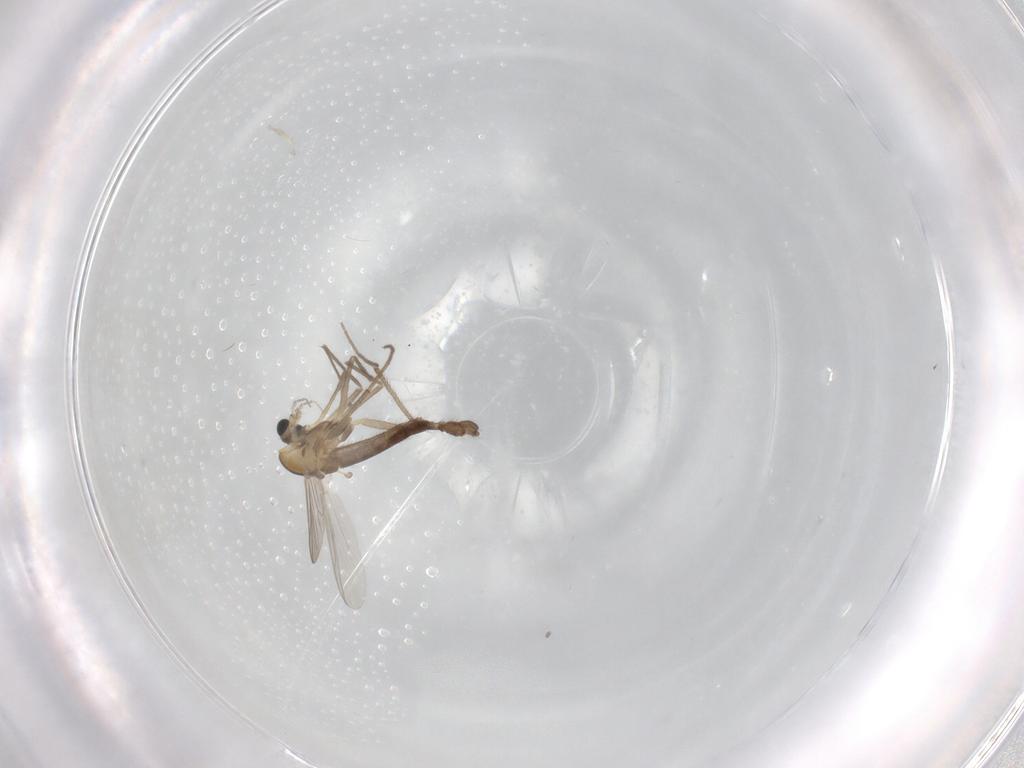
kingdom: Animalia
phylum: Arthropoda
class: Insecta
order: Diptera
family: Chironomidae
